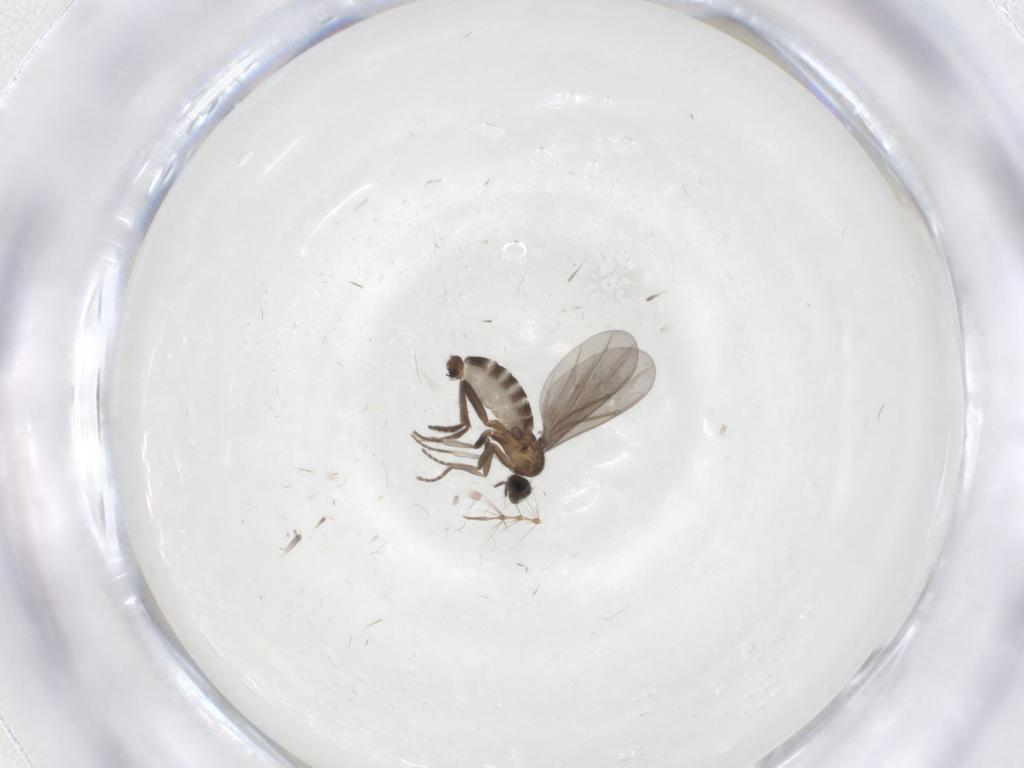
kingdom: Animalia
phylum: Arthropoda
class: Insecta
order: Diptera
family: Phoridae
